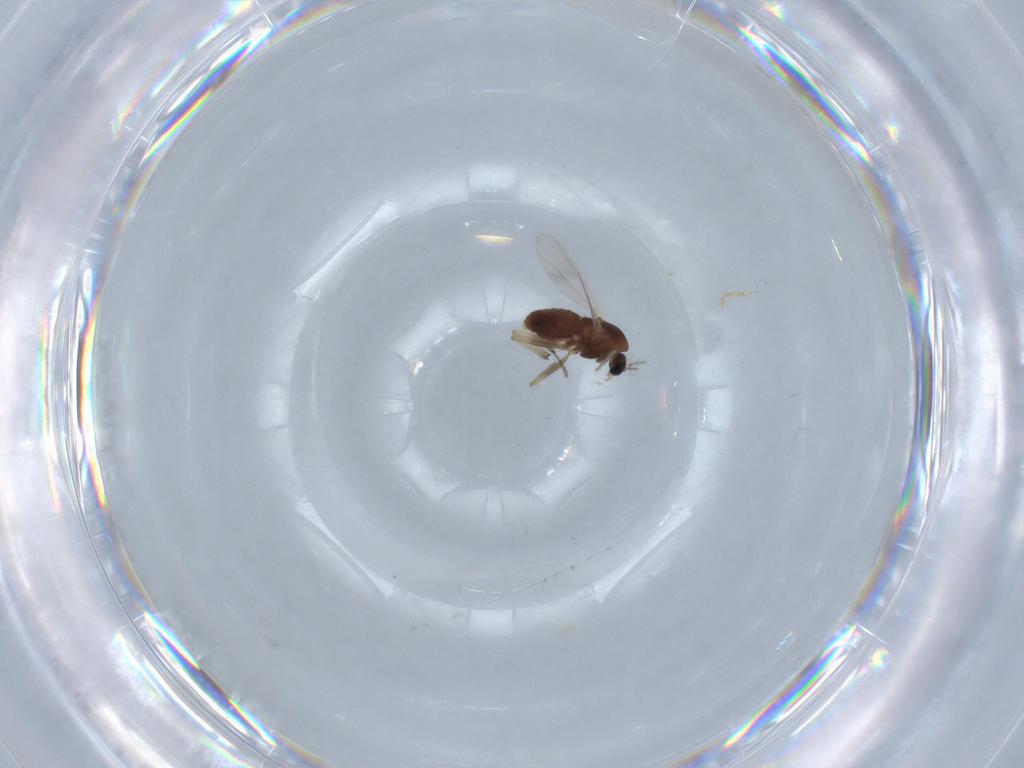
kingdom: Animalia
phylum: Arthropoda
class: Insecta
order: Diptera
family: Chironomidae
